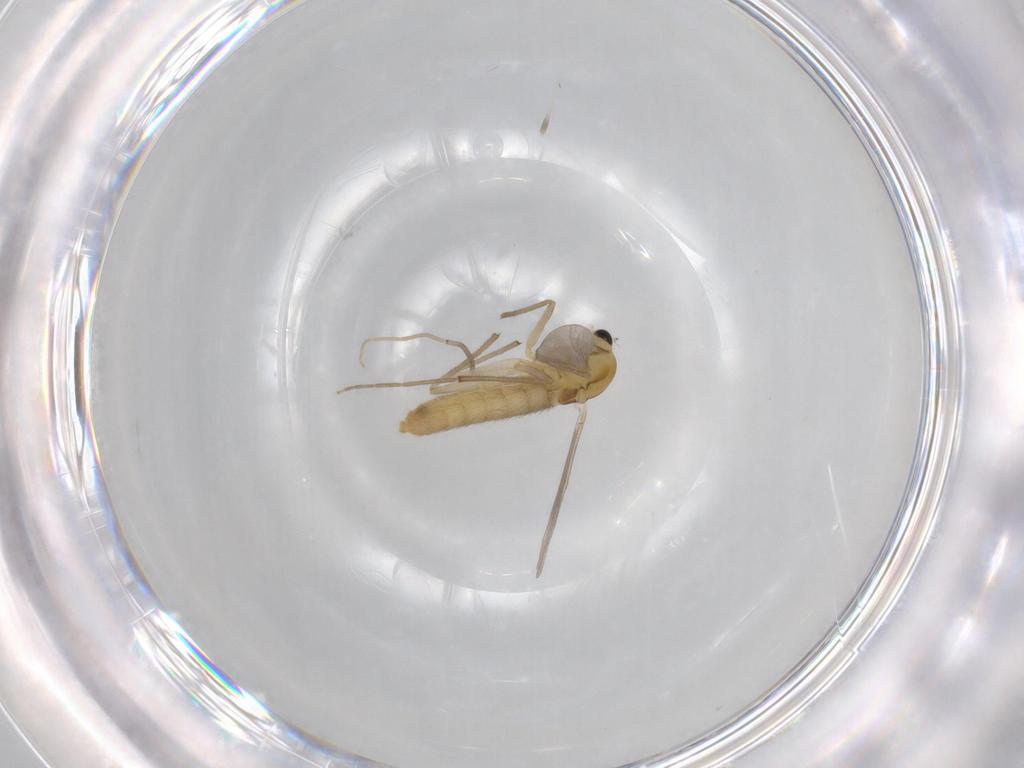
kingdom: Animalia
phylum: Arthropoda
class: Insecta
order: Diptera
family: Chironomidae
